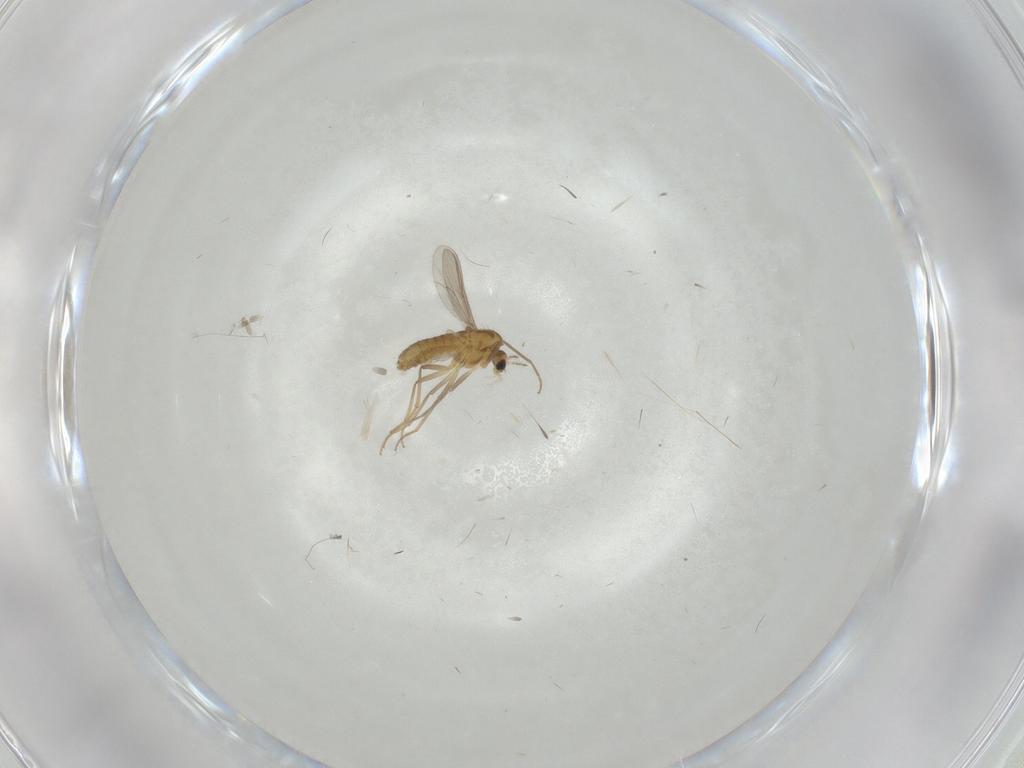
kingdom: Animalia
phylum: Arthropoda
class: Insecta
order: Diptera
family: Chironomidae
